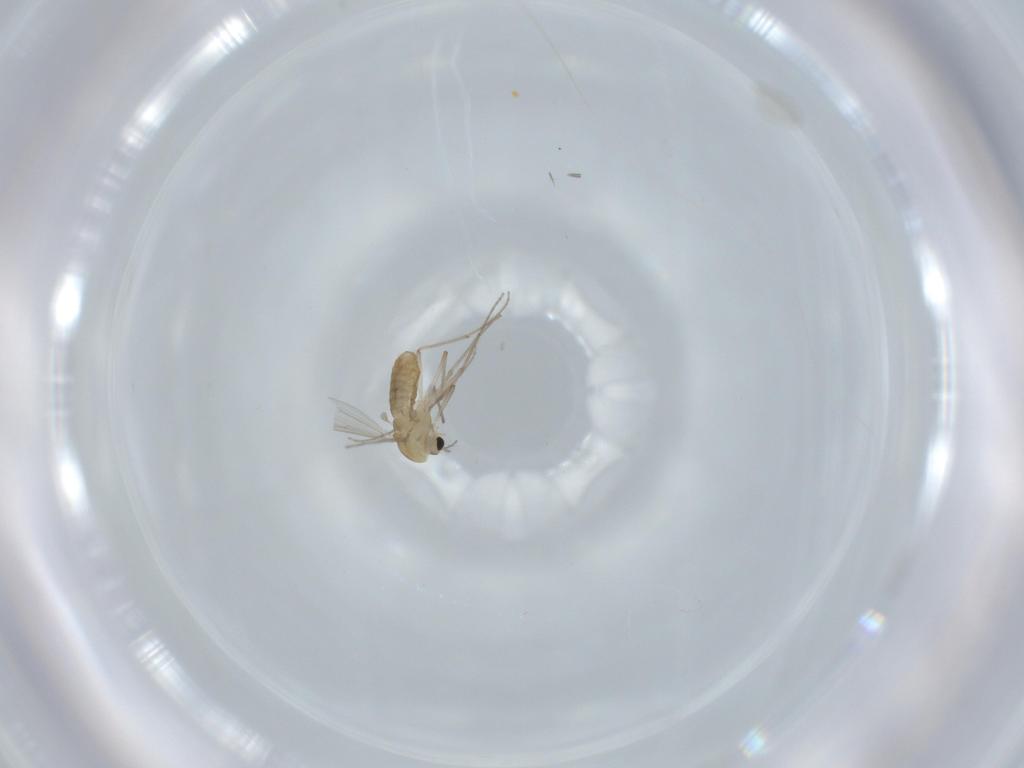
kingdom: Animalia
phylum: Arthropoda
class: Insecta
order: Diptera
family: Chironomidae
